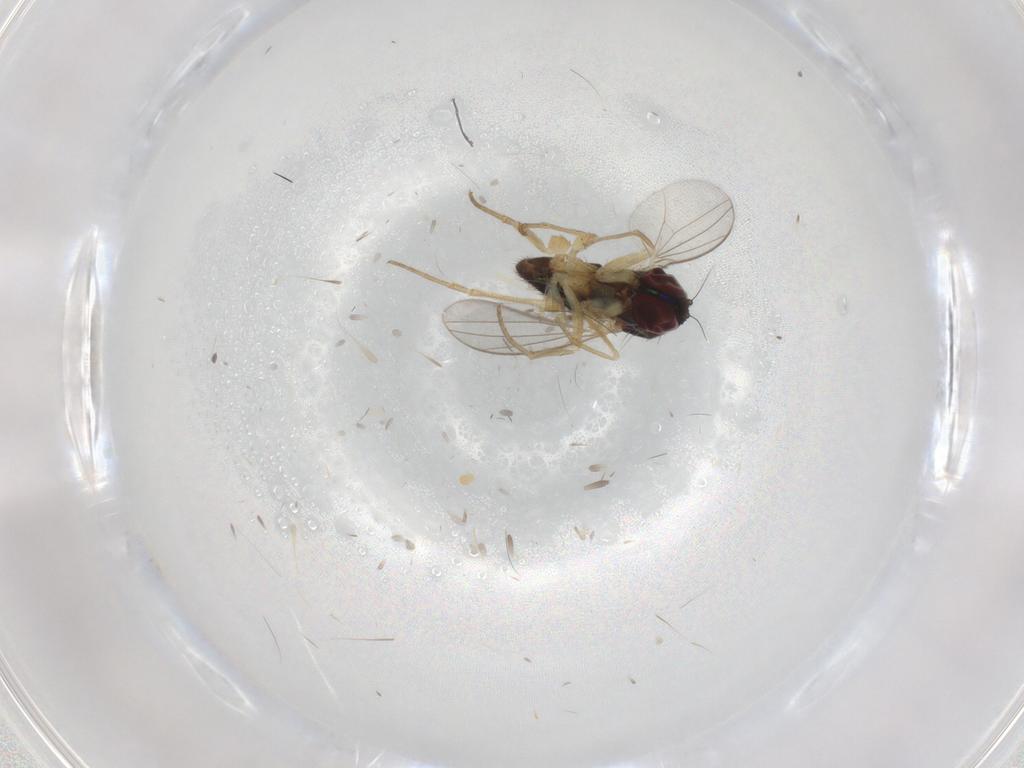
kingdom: Animalia
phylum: Arthropoda
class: Insecta
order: Diptera
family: Dolichopodidae
